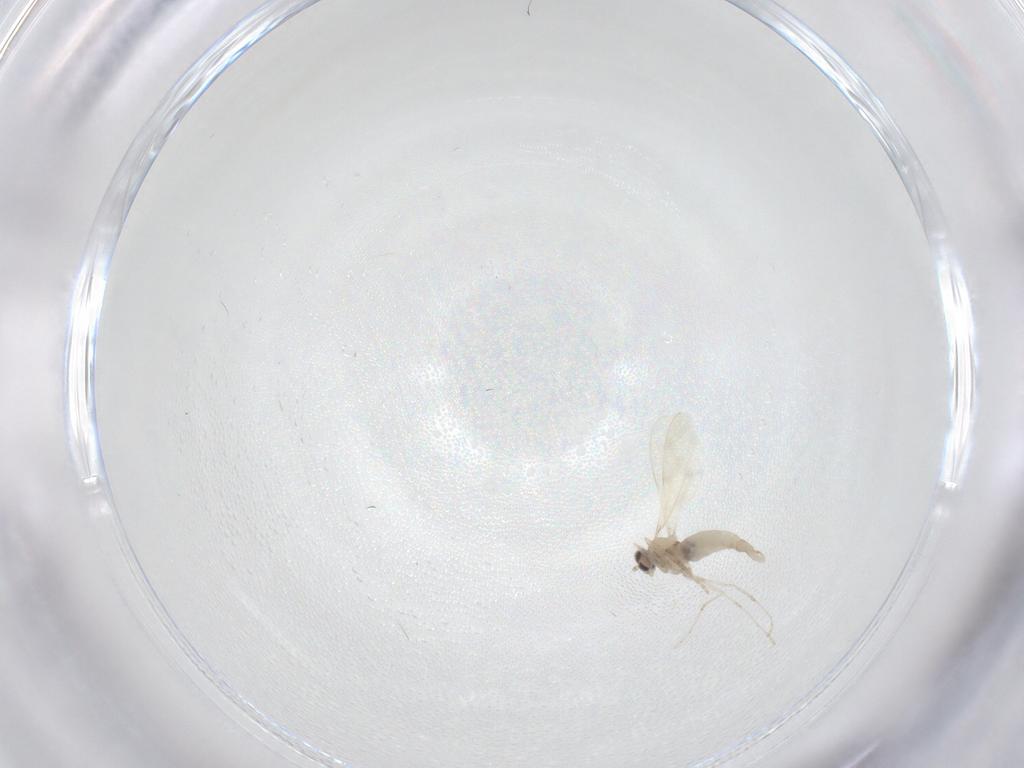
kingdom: Animalia
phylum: Arthropoda
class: Insecta
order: Diptera
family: Cecidomyiidae
